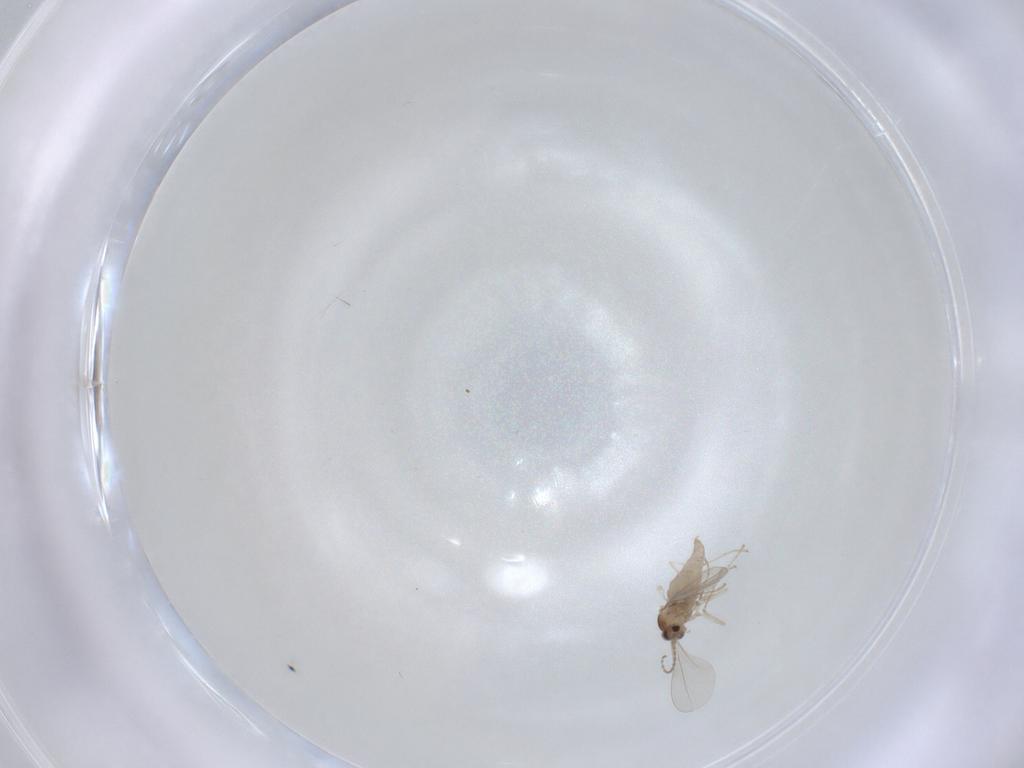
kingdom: Animalia
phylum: Arthropoda
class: Insecta
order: Diptera
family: Cecidomyiidae
